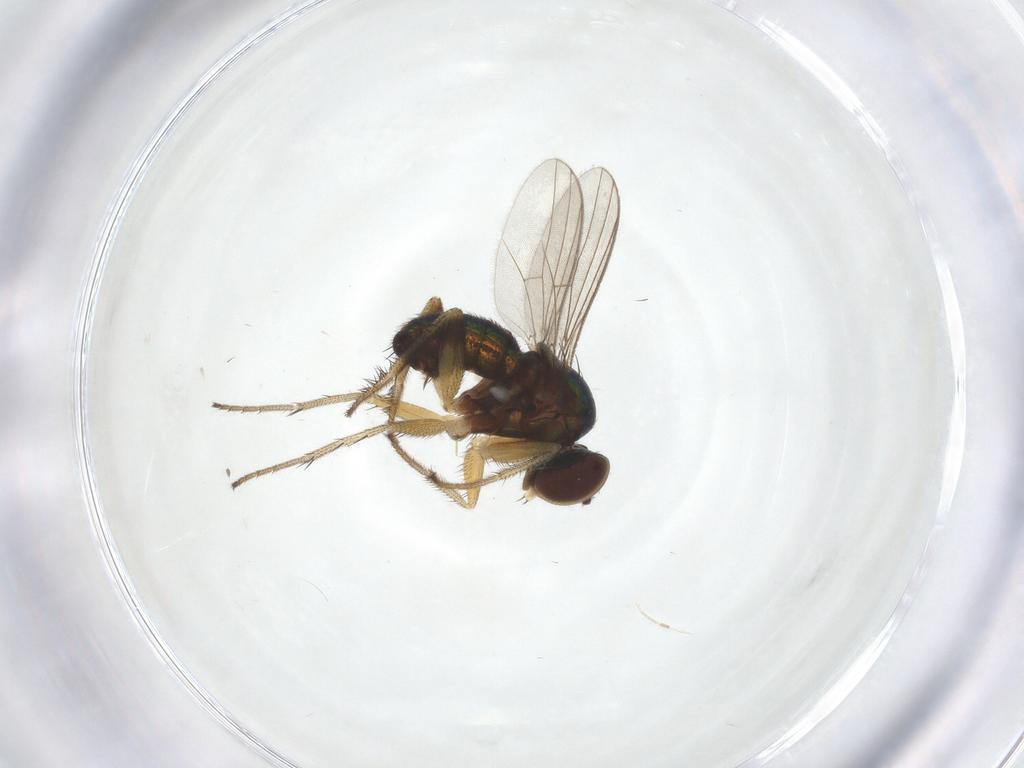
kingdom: Animalia
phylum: Arthropoda
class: Insecta
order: Diptera
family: Dolichopodidae
